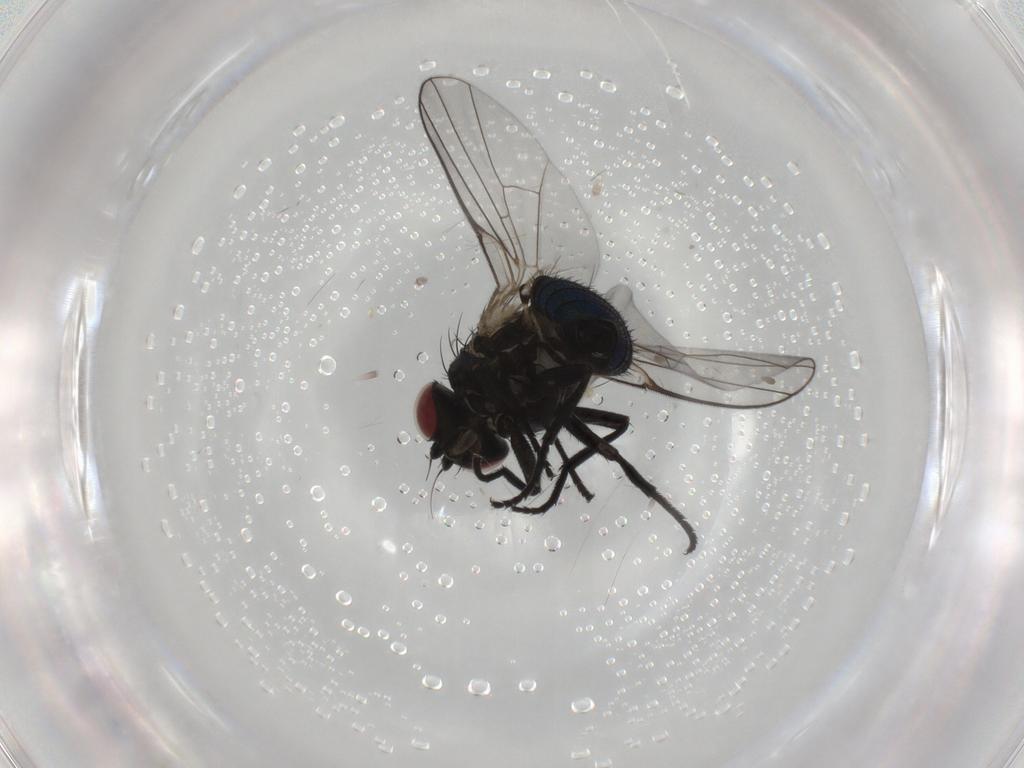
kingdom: Animalia
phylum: Arthropoda
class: Insecta
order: Diptera
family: Agromyzidae
